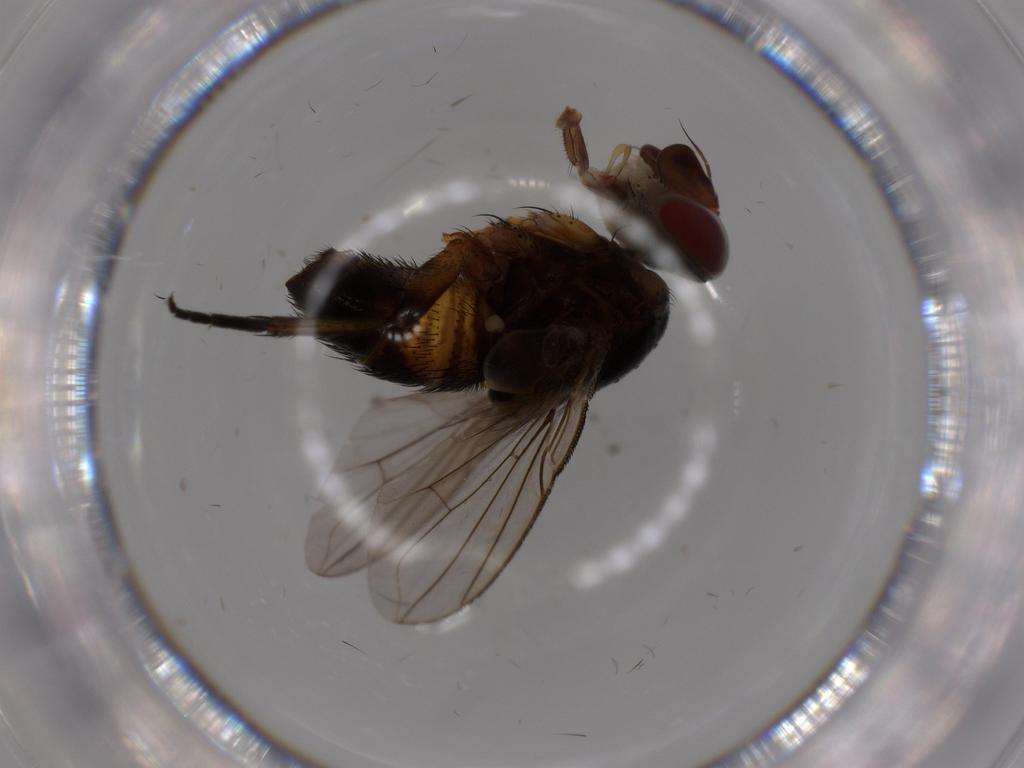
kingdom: Animalia
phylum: Arthropoda
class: Insecta
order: Diptera
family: Tachinidae
